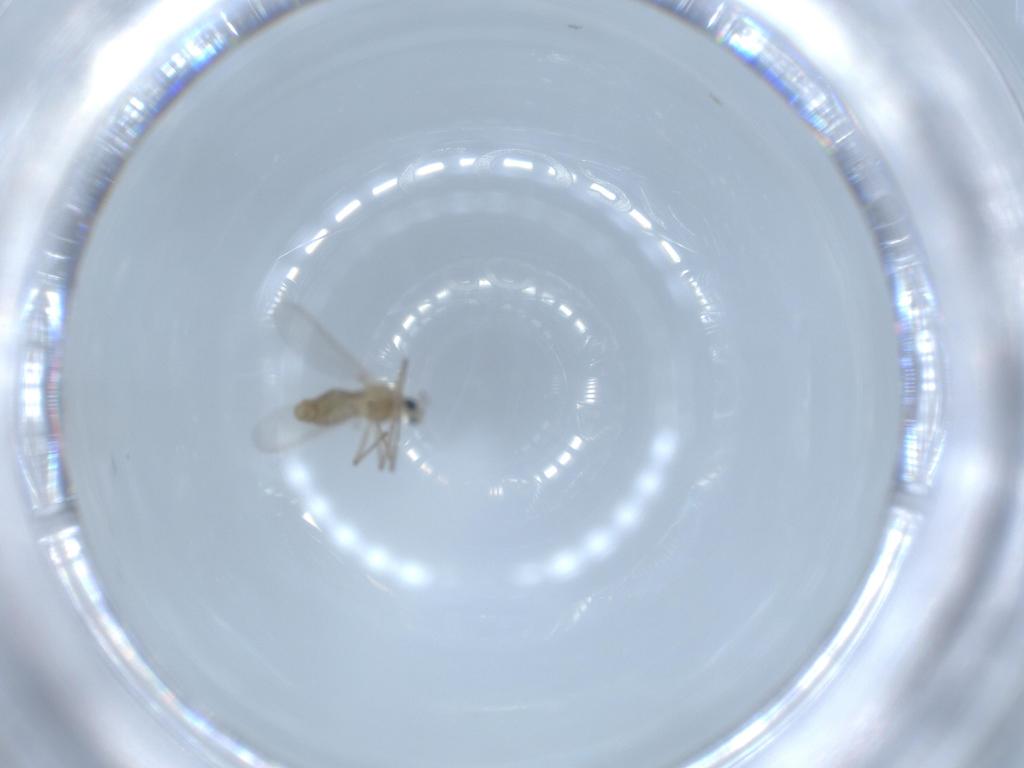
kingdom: Animalia
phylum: Arthropoda
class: Insecta
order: Diptera
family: Chironomidae
